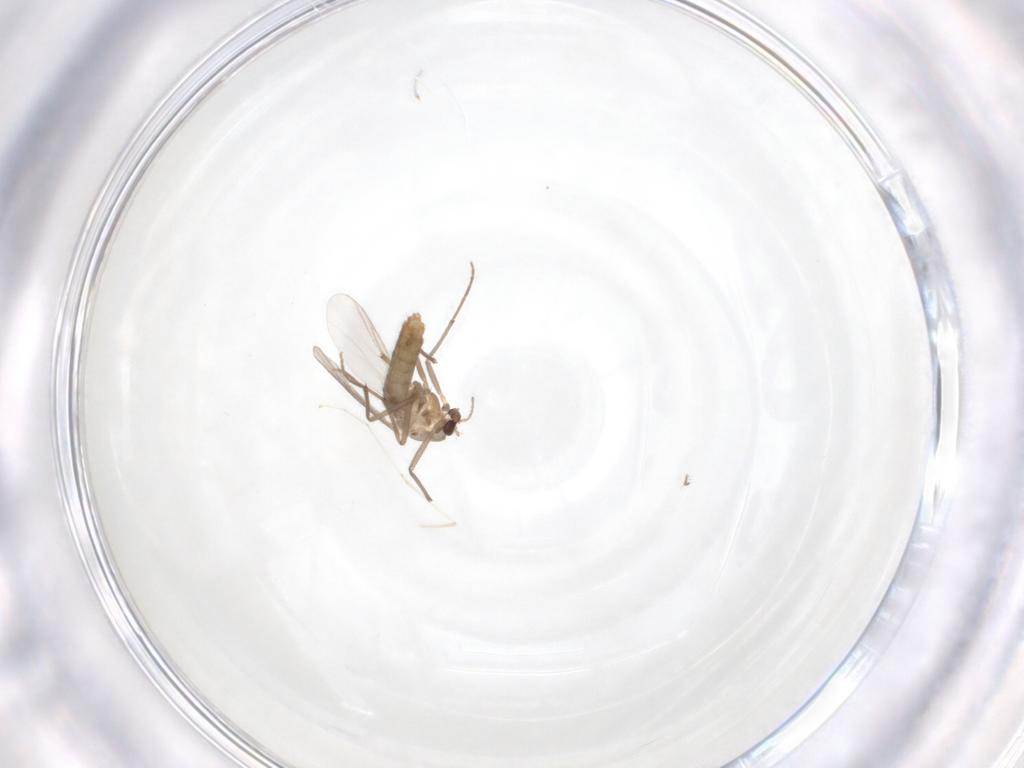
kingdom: Animalia
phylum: Arthropoda
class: Insecta
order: Diptera
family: Chironomidae
